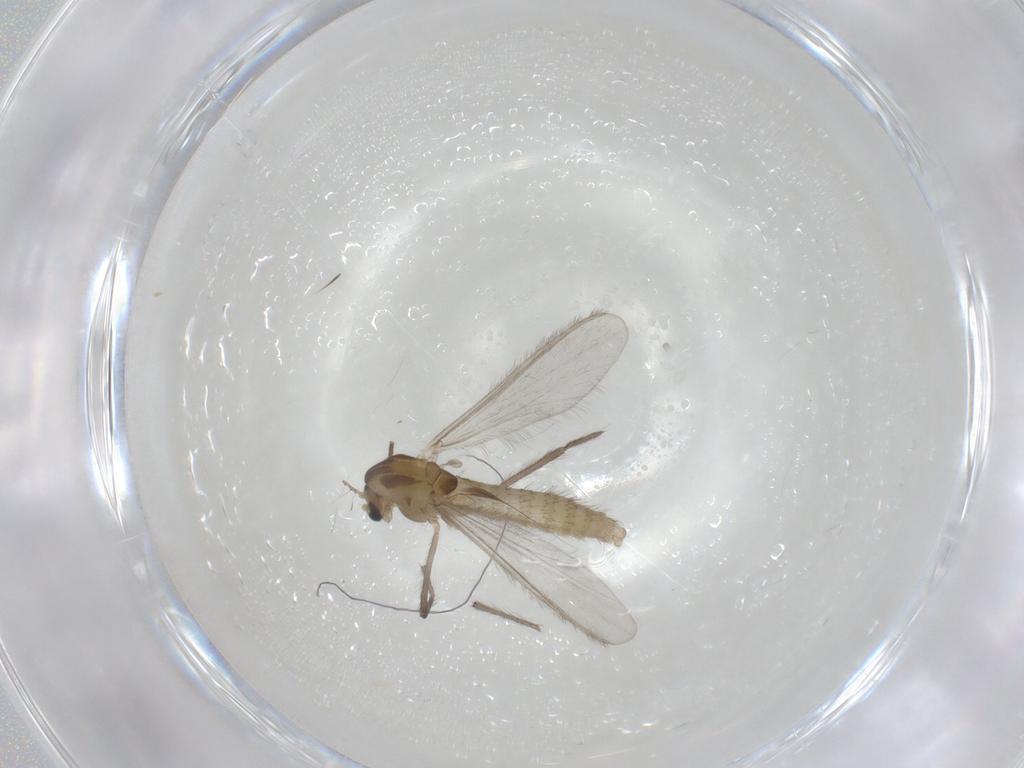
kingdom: Animalia
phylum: Arthropoda
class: Insecta
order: Diptera
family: Chironomidae
